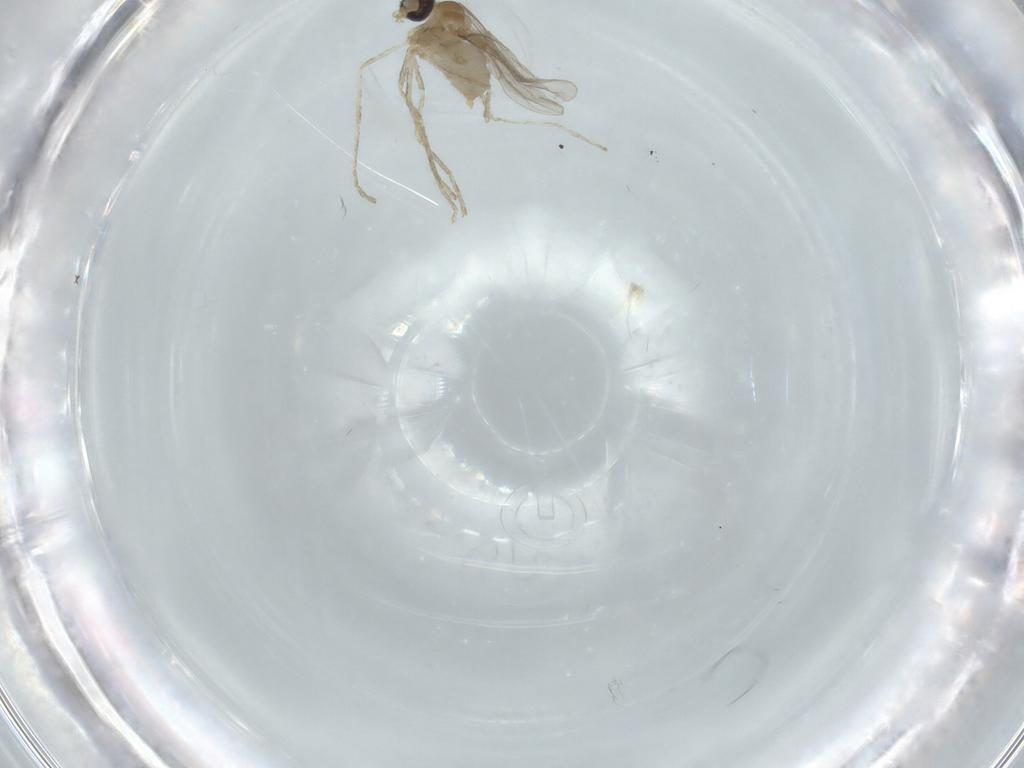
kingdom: Animalia
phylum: Arthropoda
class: Insecta
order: Diptera
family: Cecidomyiidae
